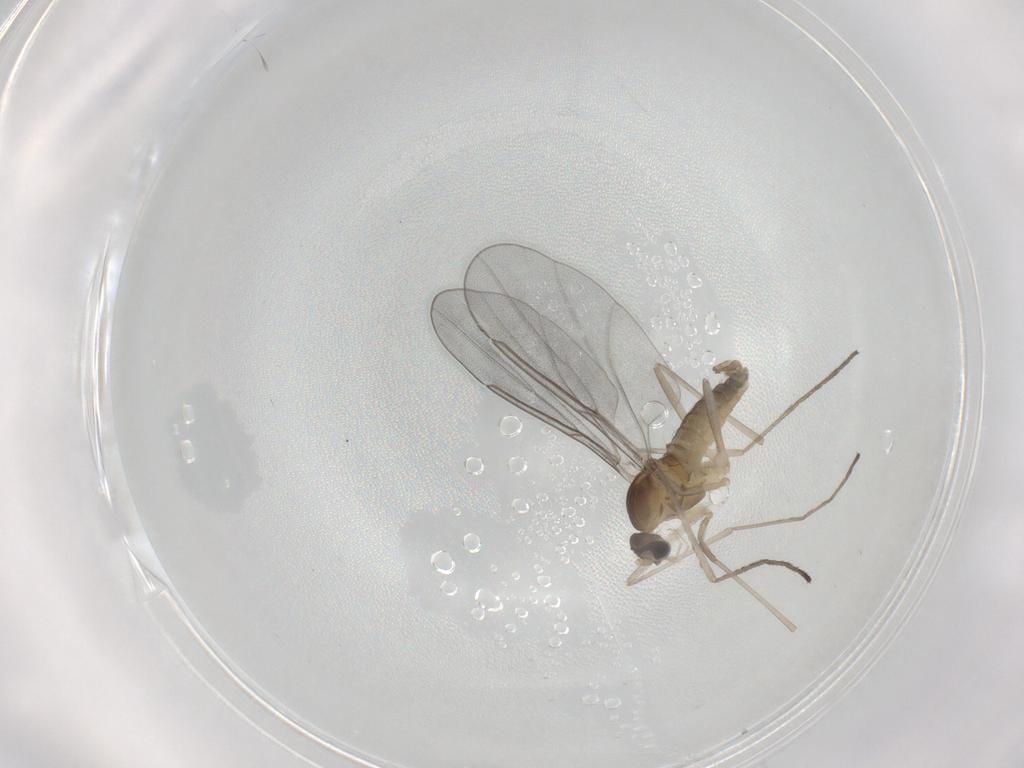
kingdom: Animalia
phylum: Arthropoda
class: Insecta
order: Diptera
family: Cecidomyiidae
